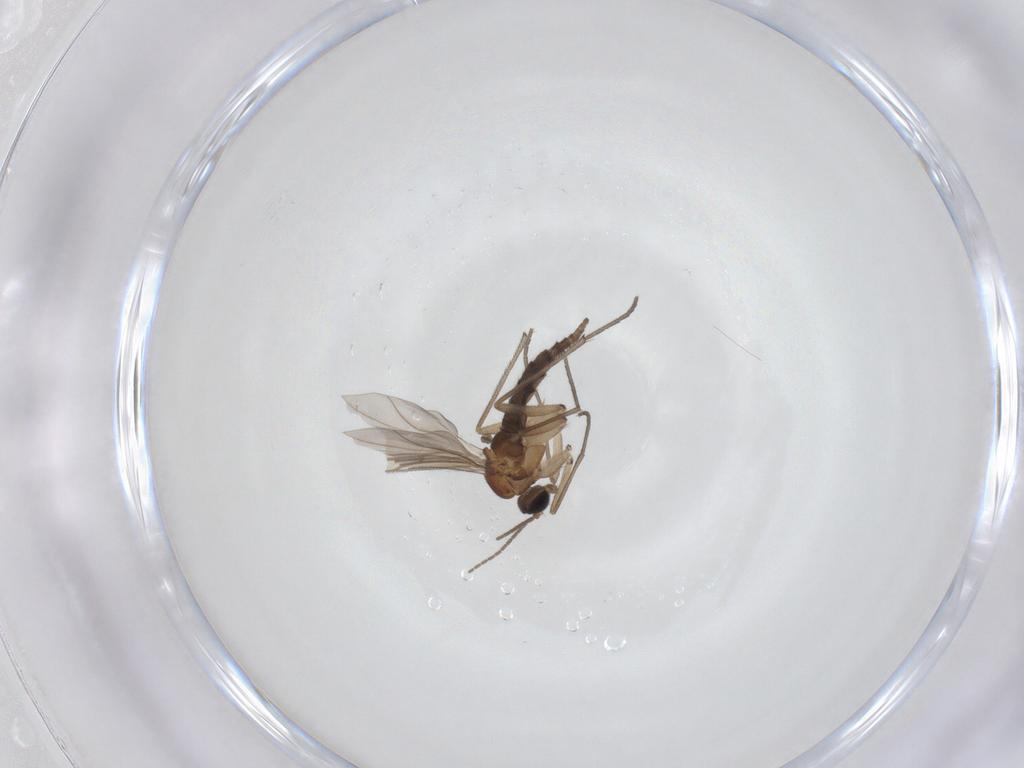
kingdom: Animalia
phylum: Arthropoda
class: Insecta
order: Diptera
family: Sciaridae
